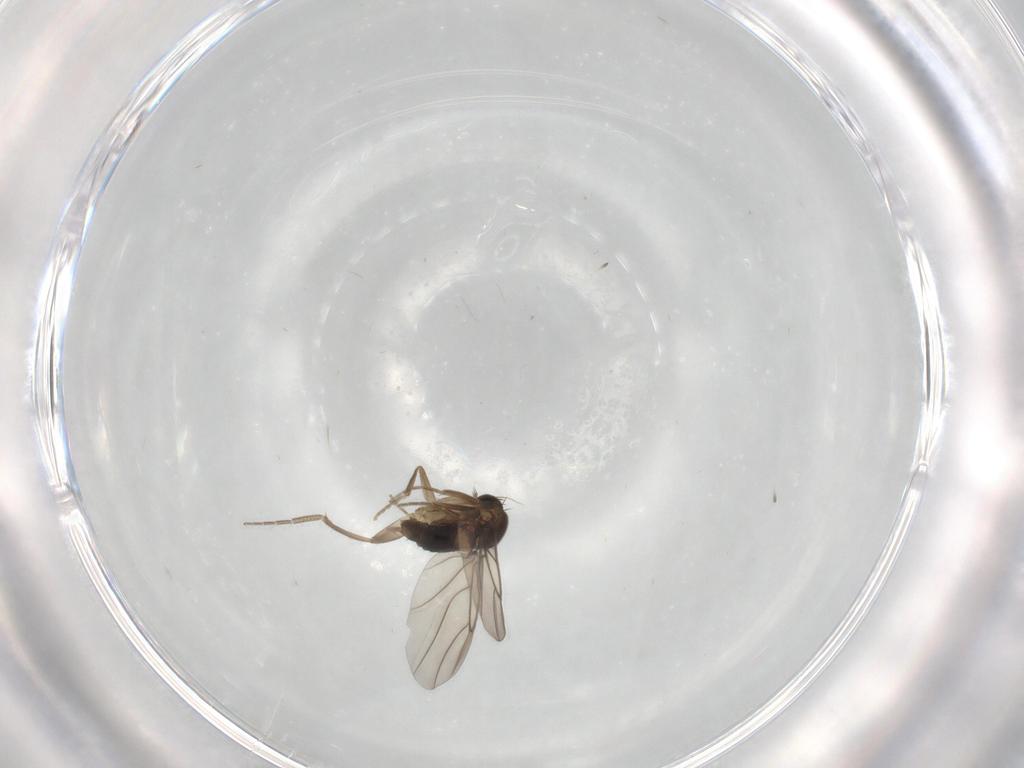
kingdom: Animalia
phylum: Arthropoda
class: Insecta
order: Diptera
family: Phoridae
